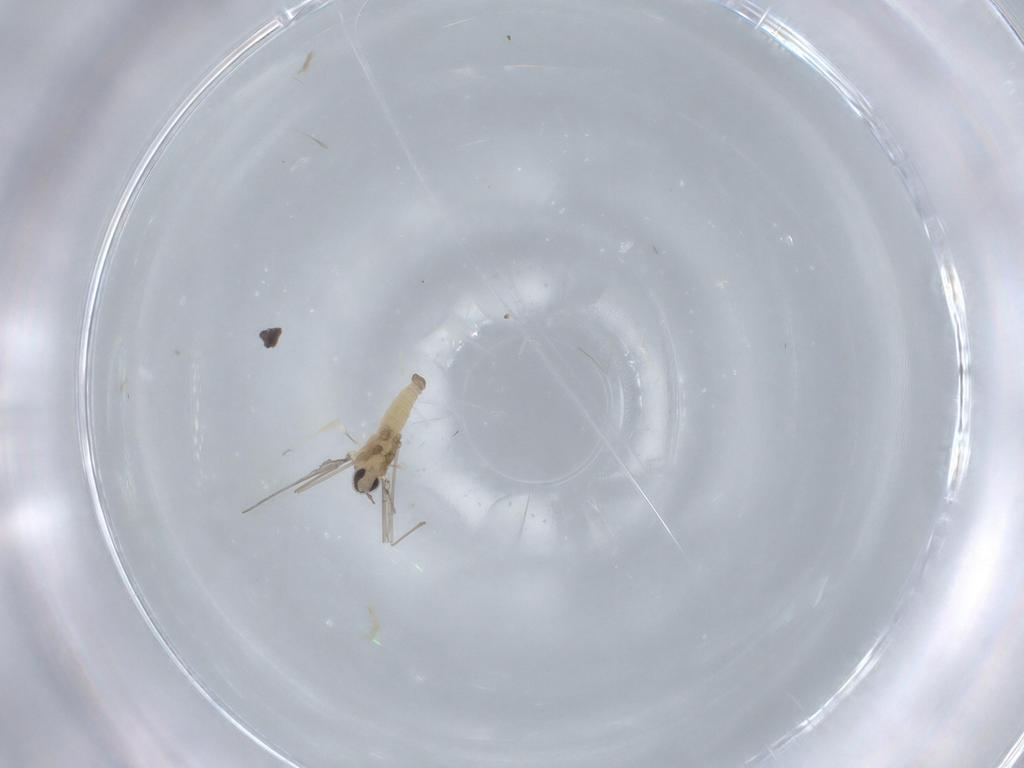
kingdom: Animalia
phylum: Arthropoda
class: Insecta
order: Diptera
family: Cecidomyiidae
